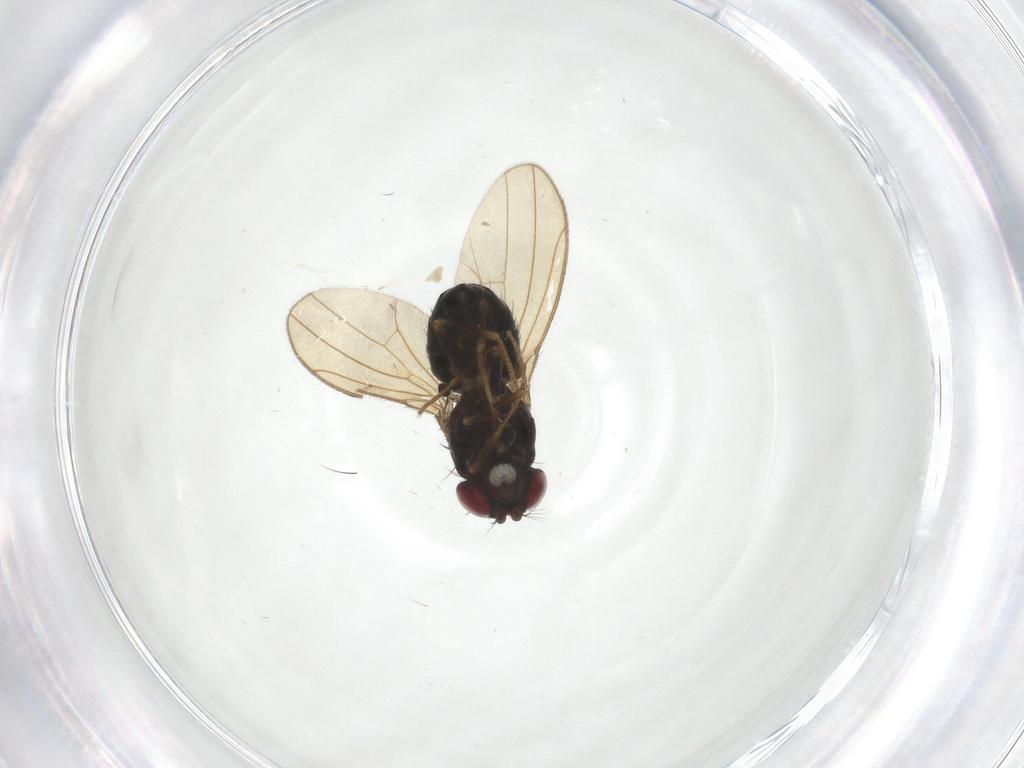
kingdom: Animalia
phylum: Arthropoda
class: Insecta
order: Diptera
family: Drosophilidae
